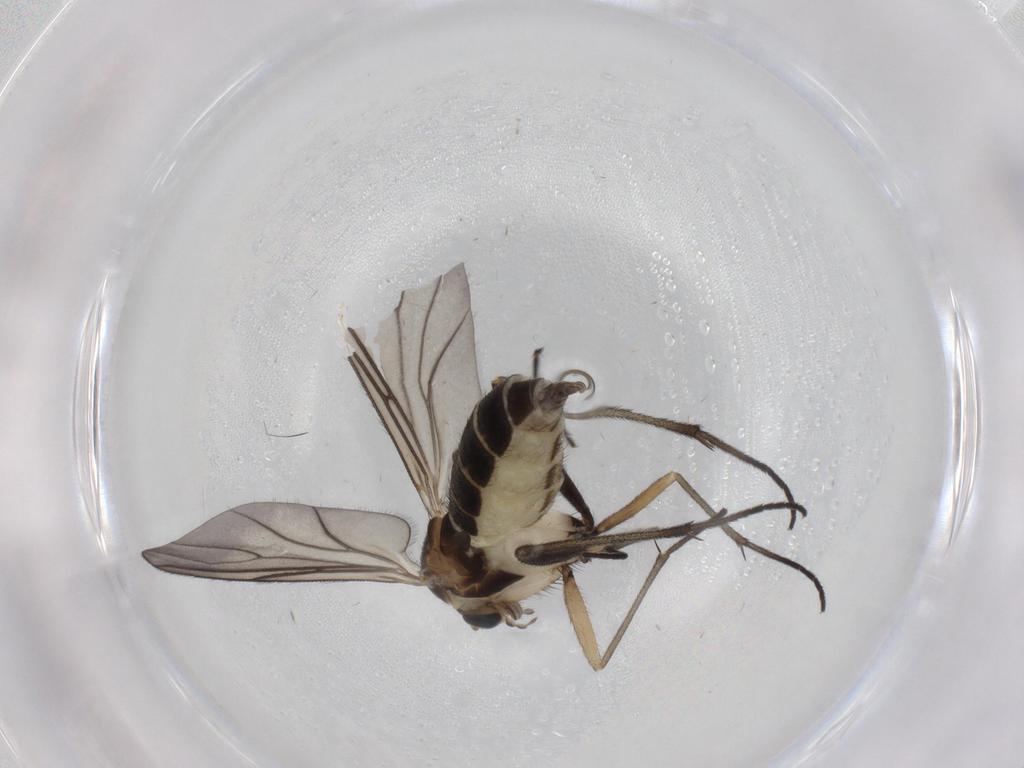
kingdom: Animalia
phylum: Arthropoda
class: Insecta
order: Diptera
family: Sciaridae
